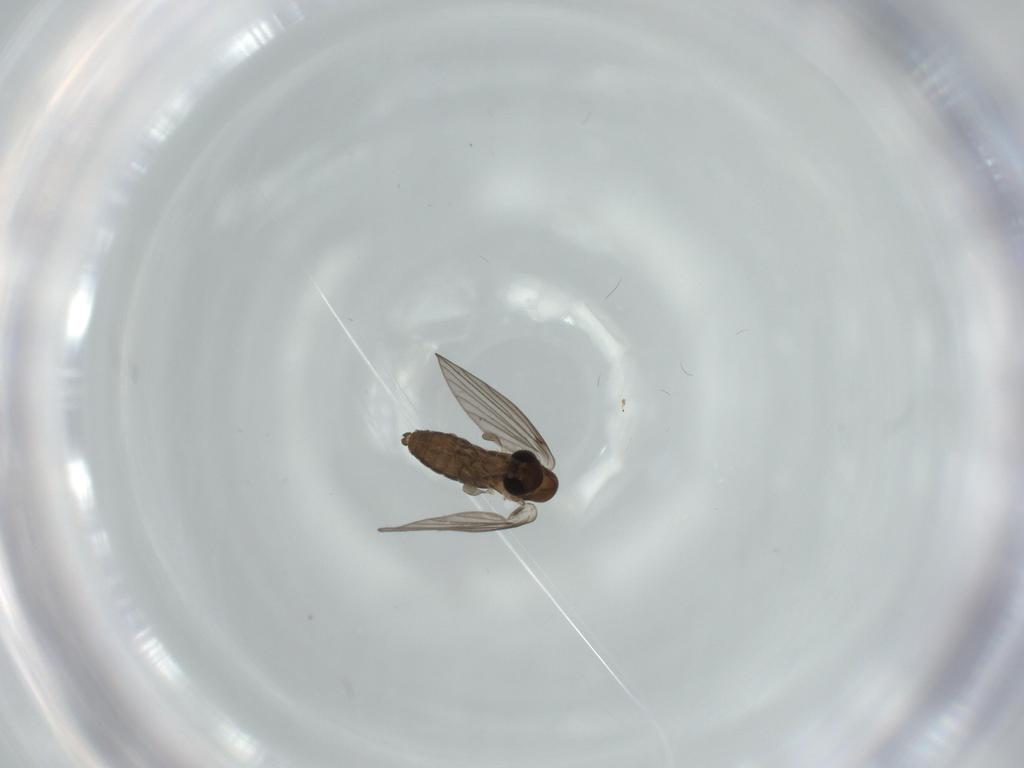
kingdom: Animalia
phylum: Arthropoda
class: Insecta
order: Diptera
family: Psychodidae
